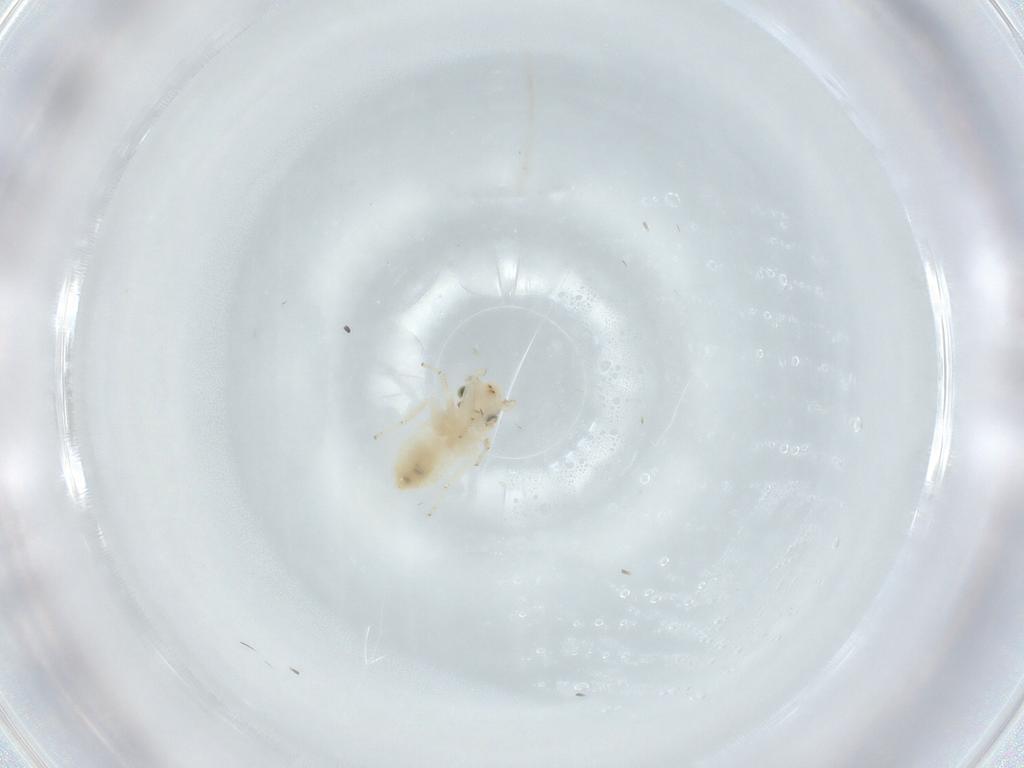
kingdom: Animalia
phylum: Arthropoda
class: Insecta
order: Psocodea
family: Lepidopsocidae
